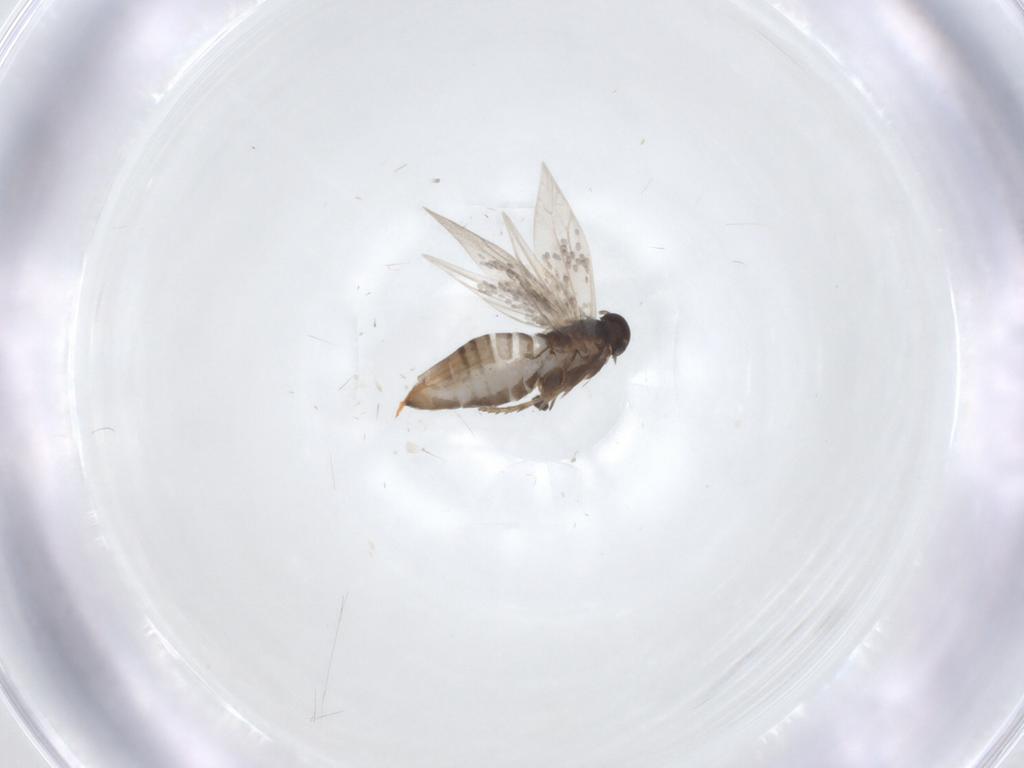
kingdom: Animalia
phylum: Arthropoda
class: Insecta
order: Lepidoptera
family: Heliozelidae
